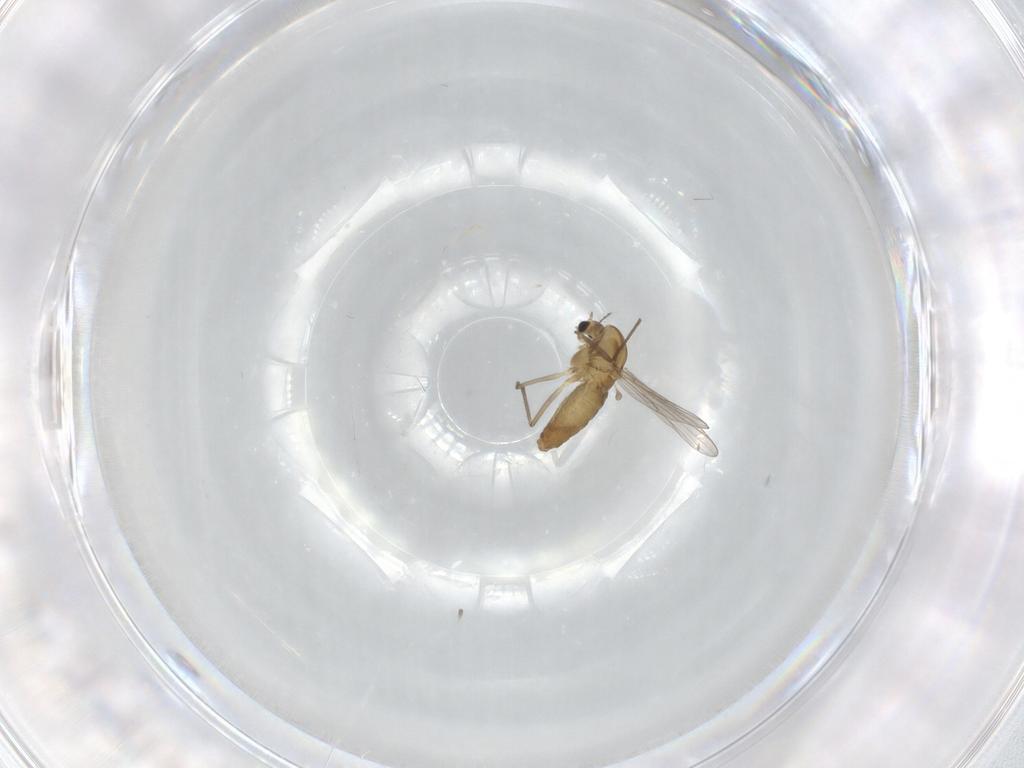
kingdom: Animalia
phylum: Arthropoda
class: Insecta
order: Diptera
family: Chironomidae
